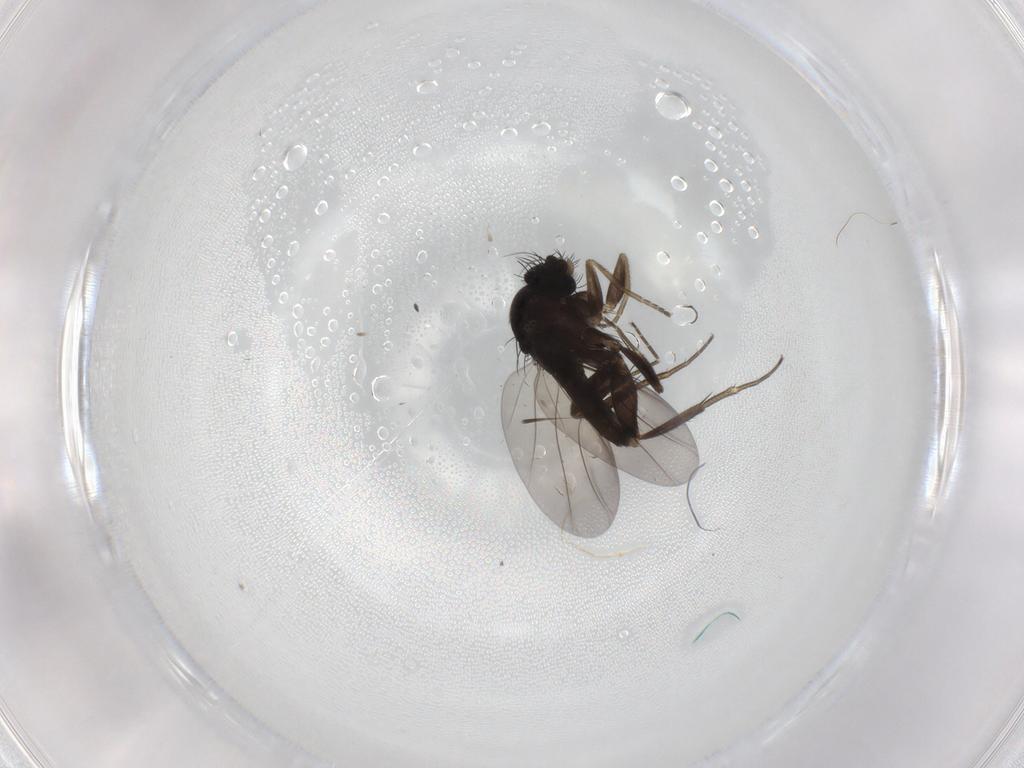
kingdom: Animalia
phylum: Arthropoda
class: Insecta
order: Diptera
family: Phoridae
